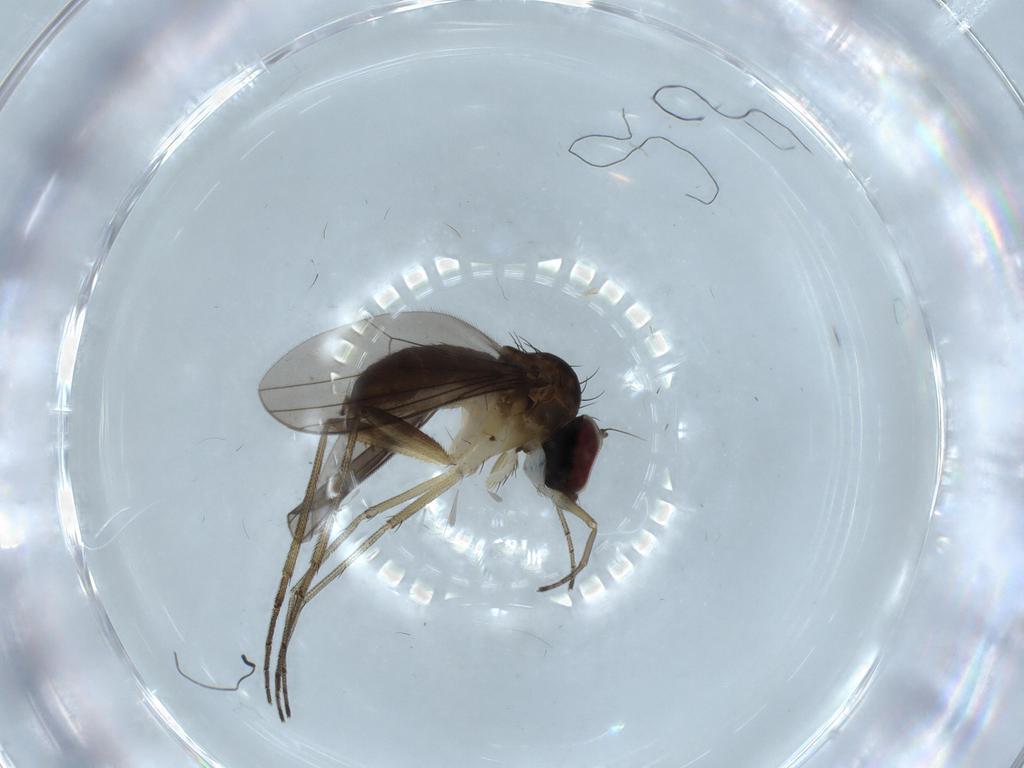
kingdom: Animalia
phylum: Arthropoda
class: Insecta
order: Diptera
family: Dolichopodidae
